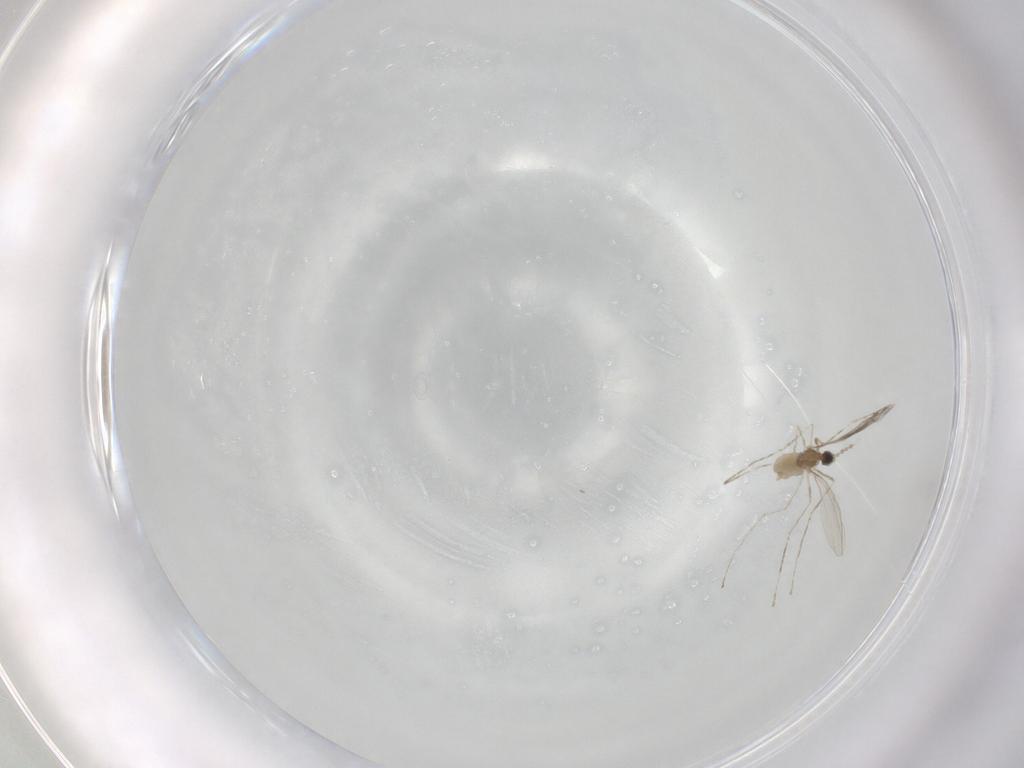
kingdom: Animalia
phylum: Arthropoda
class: Insecta
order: Diptera
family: Cecidomyiidae
